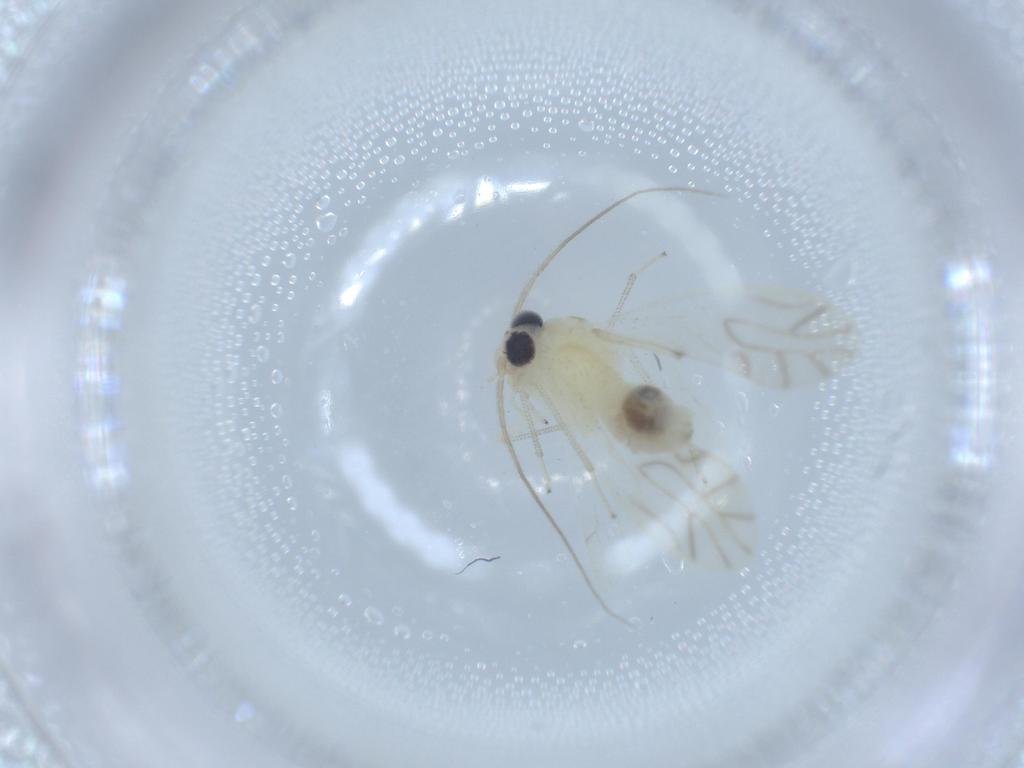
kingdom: Animalia
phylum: Arthropoda
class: Insecta
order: Psocodea
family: Caeciliusidae
